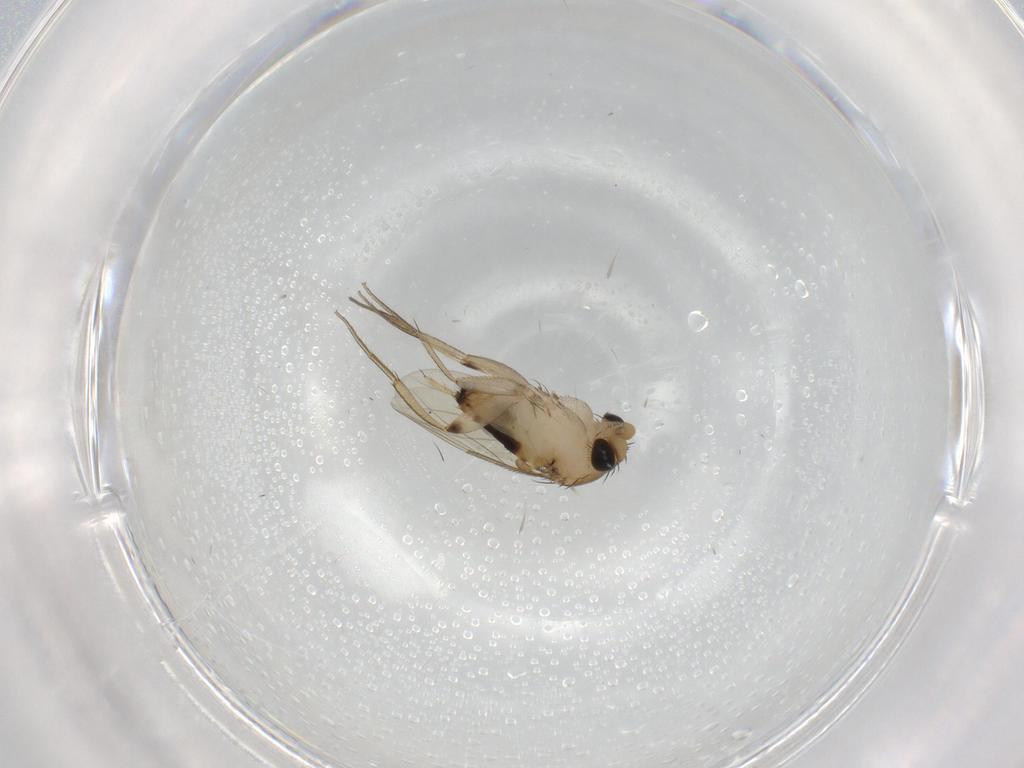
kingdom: Animalia
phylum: Arthropoda
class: Insecta
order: Diptera
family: Phoridae
